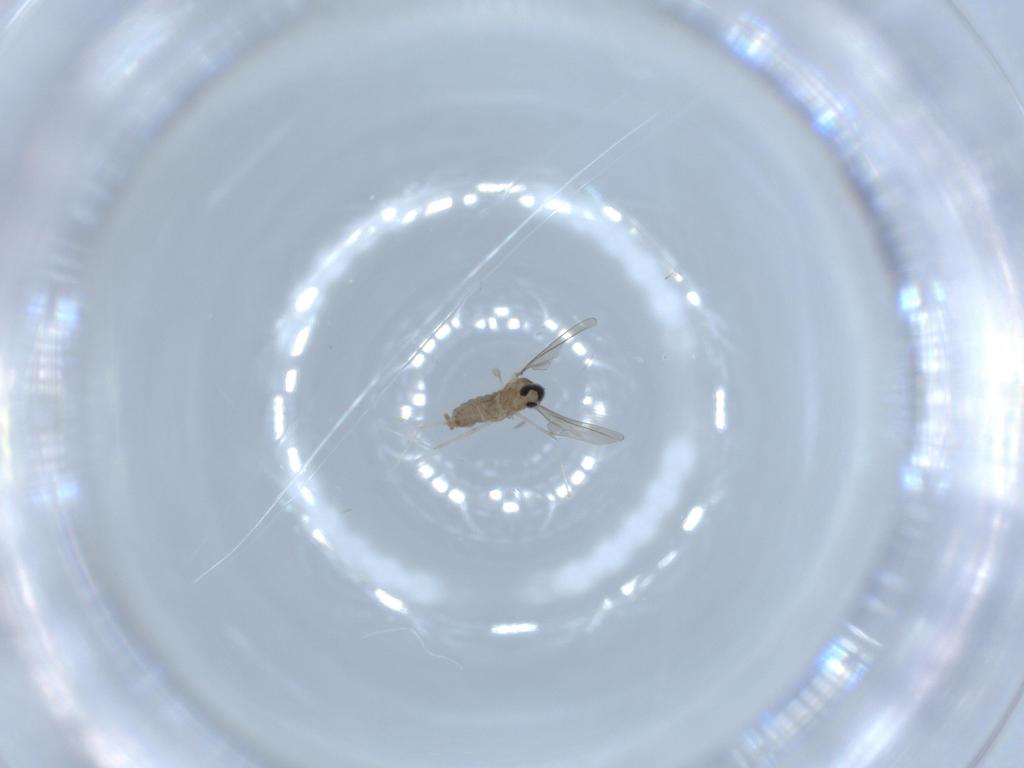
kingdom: Animalia
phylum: Arthropoda
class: Insecta
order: Diptera
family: Cecidomyiidae
